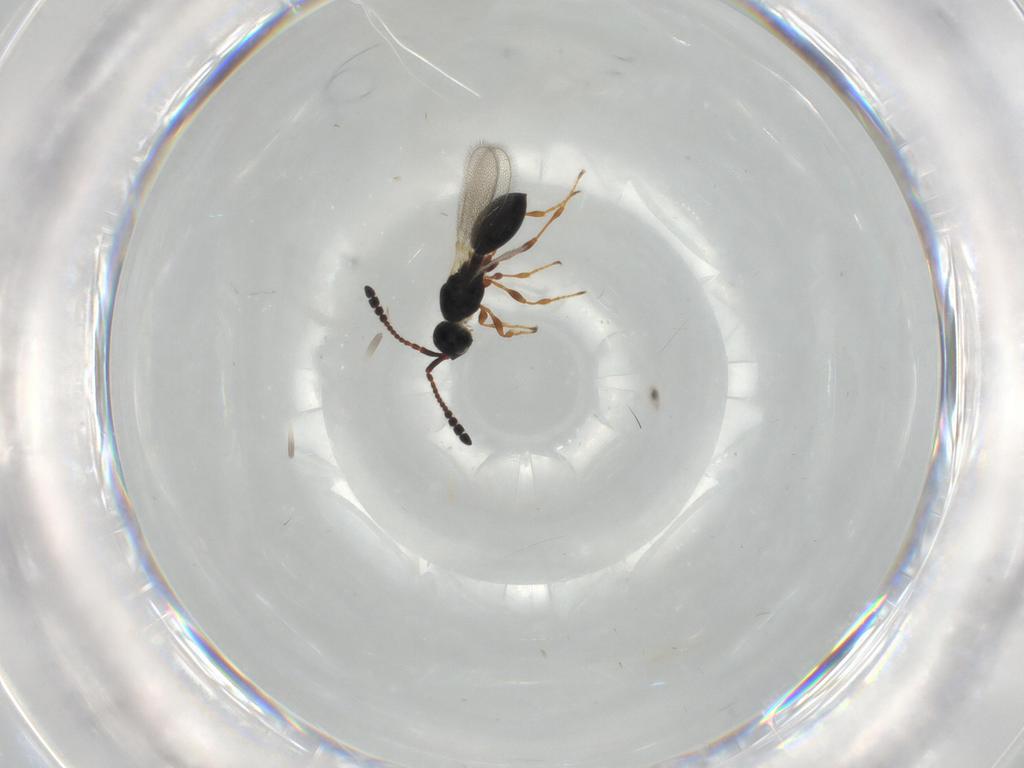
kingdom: Animalia
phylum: Arthropoda
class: Insecta
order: Hymenoptera
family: Diapriidae
